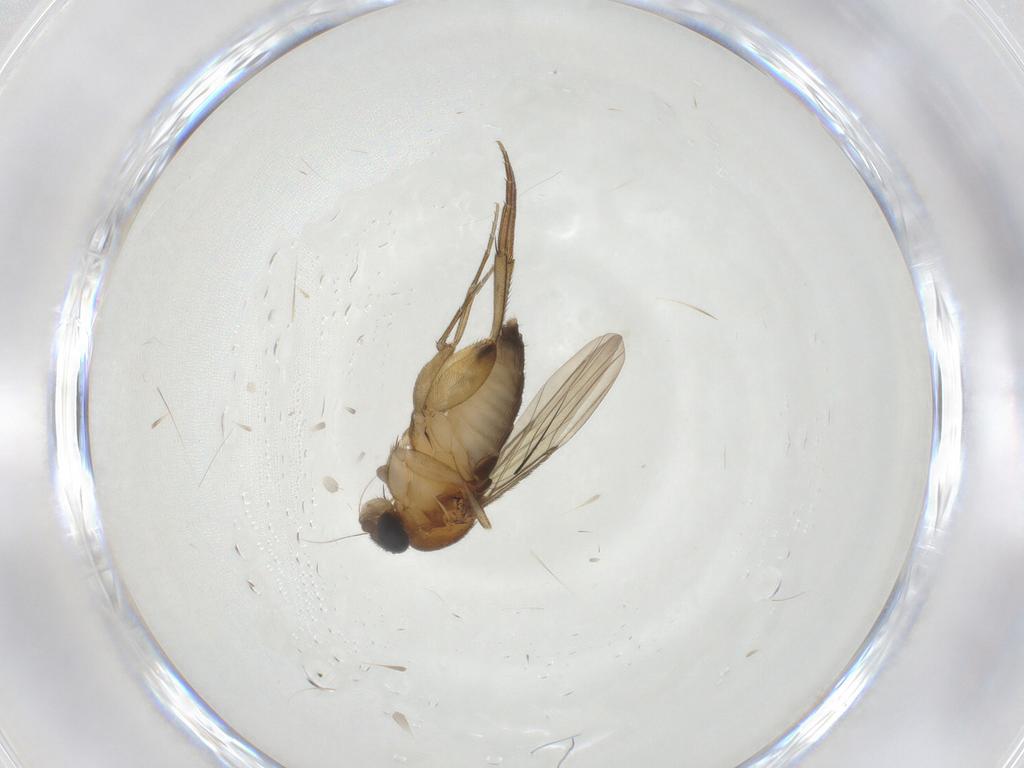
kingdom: Animalia
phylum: Arthropoda
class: Insecta
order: Diptera
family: Phoridae
